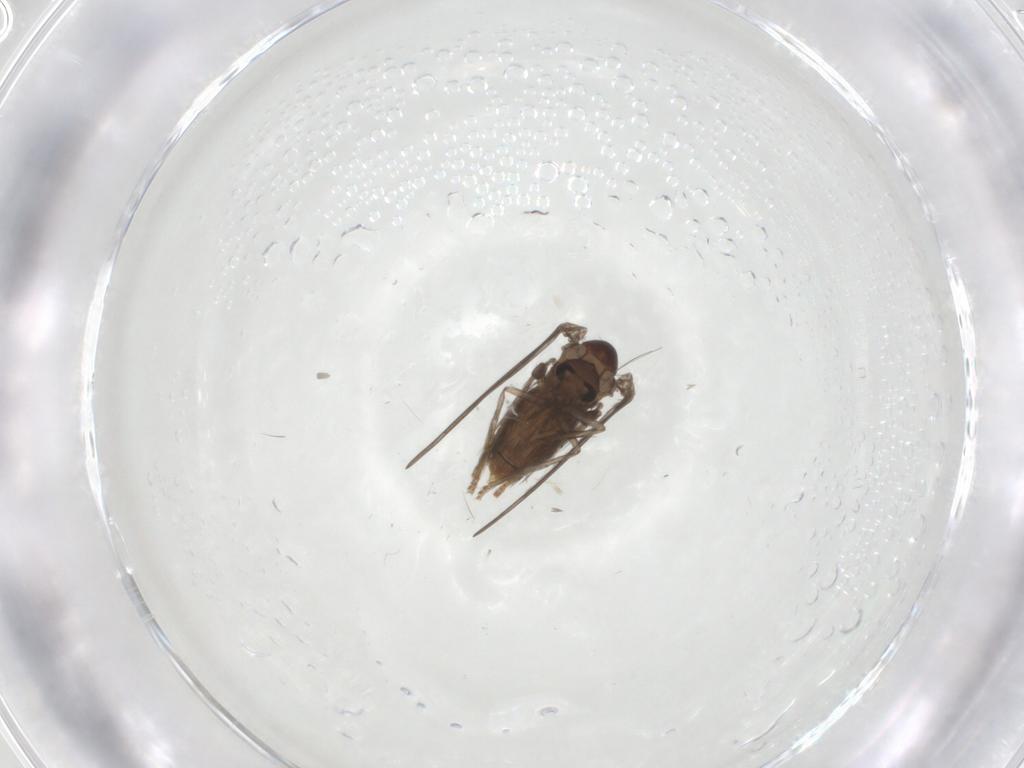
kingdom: Animalia
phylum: Arthropoda
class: Insecta
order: Diptera
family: Psychodidae
